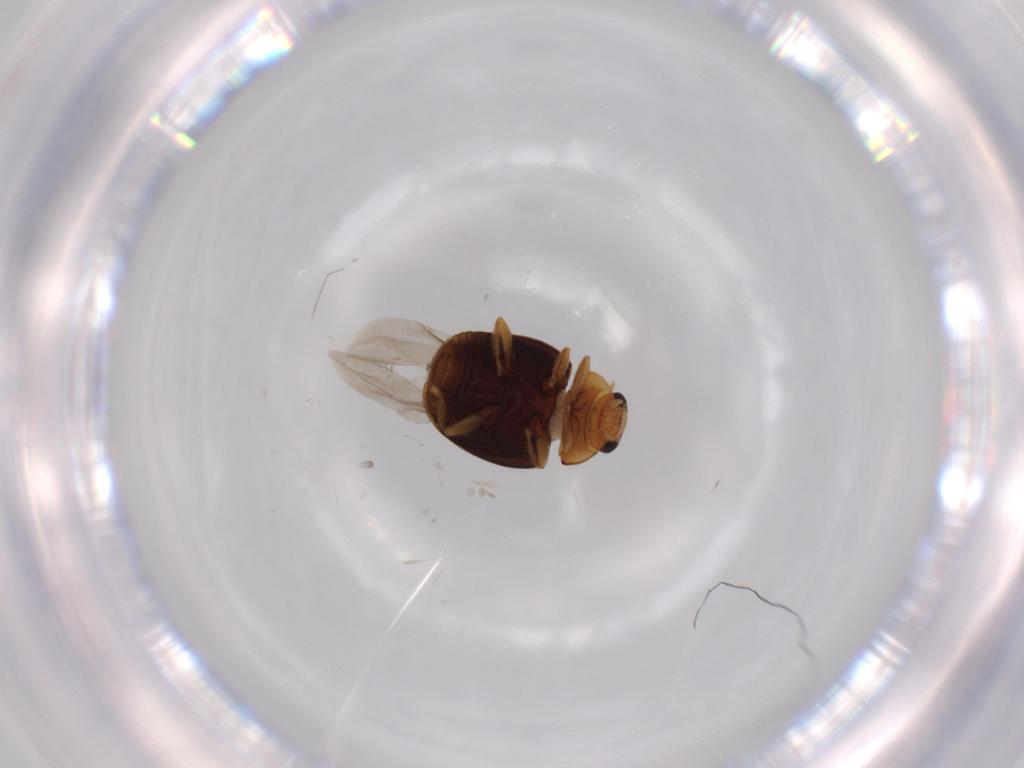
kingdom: Animalia
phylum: Arthropoda
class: Insecta
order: Coleoptera
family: Coccinellidae
